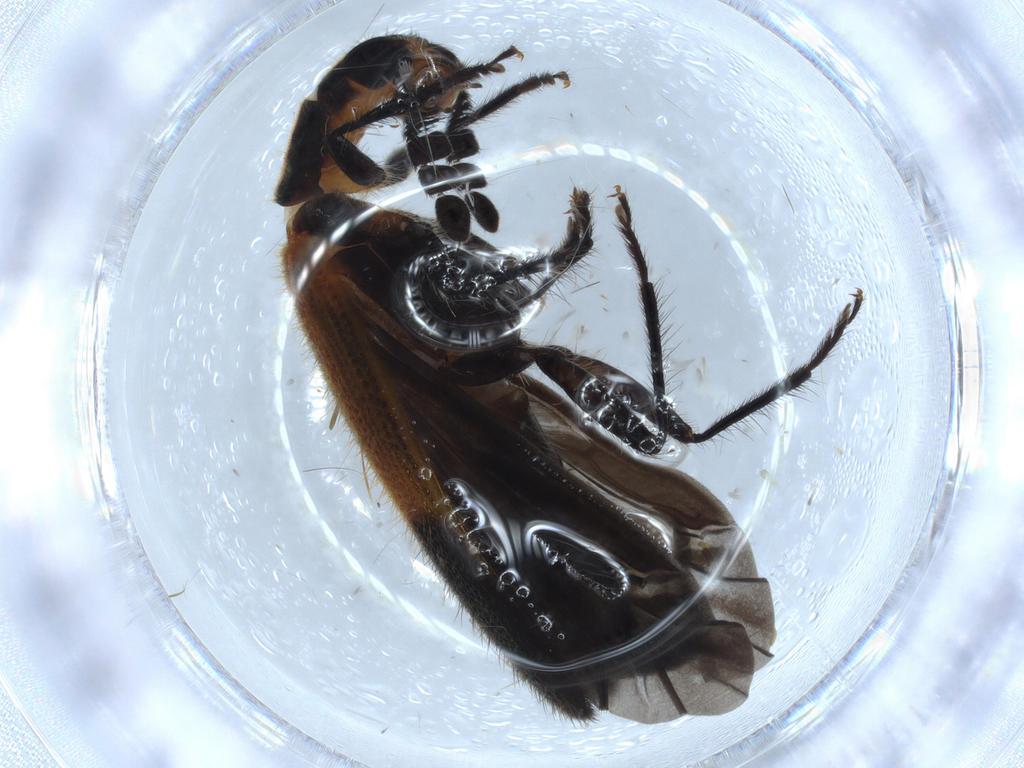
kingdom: Animalia
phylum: Arthropoda
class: Insecta
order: Coleoptera
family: Cleridae
